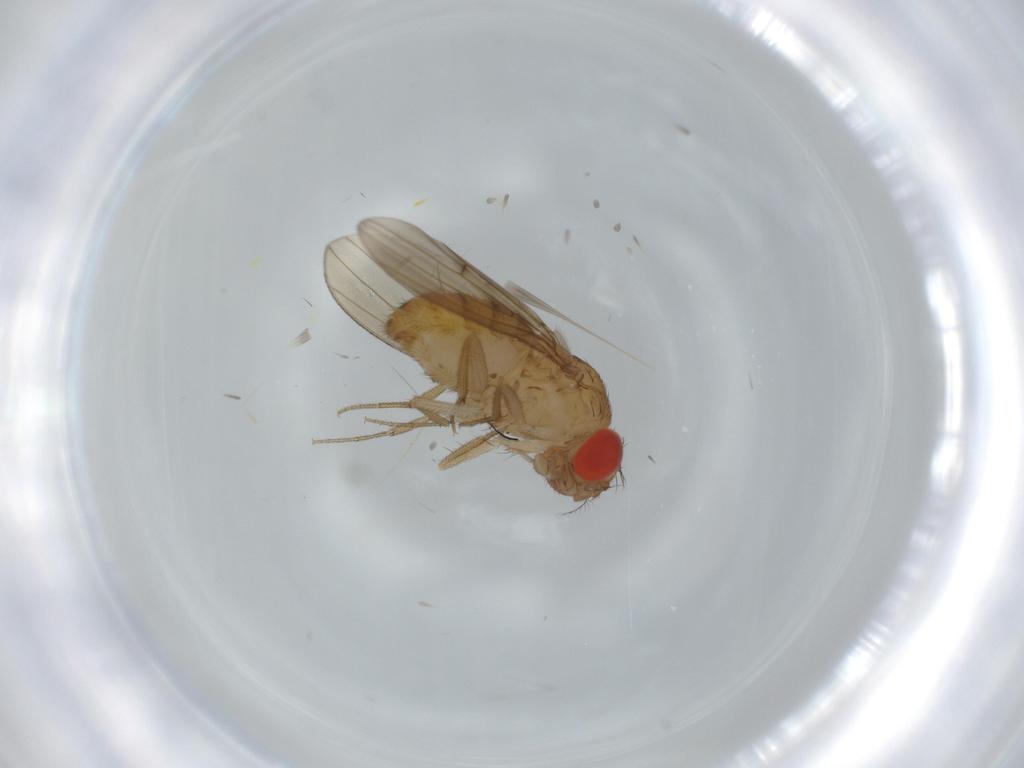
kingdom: Animalia
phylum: Arthropoda
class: Insecta
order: Diptera
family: Drosophilidae
